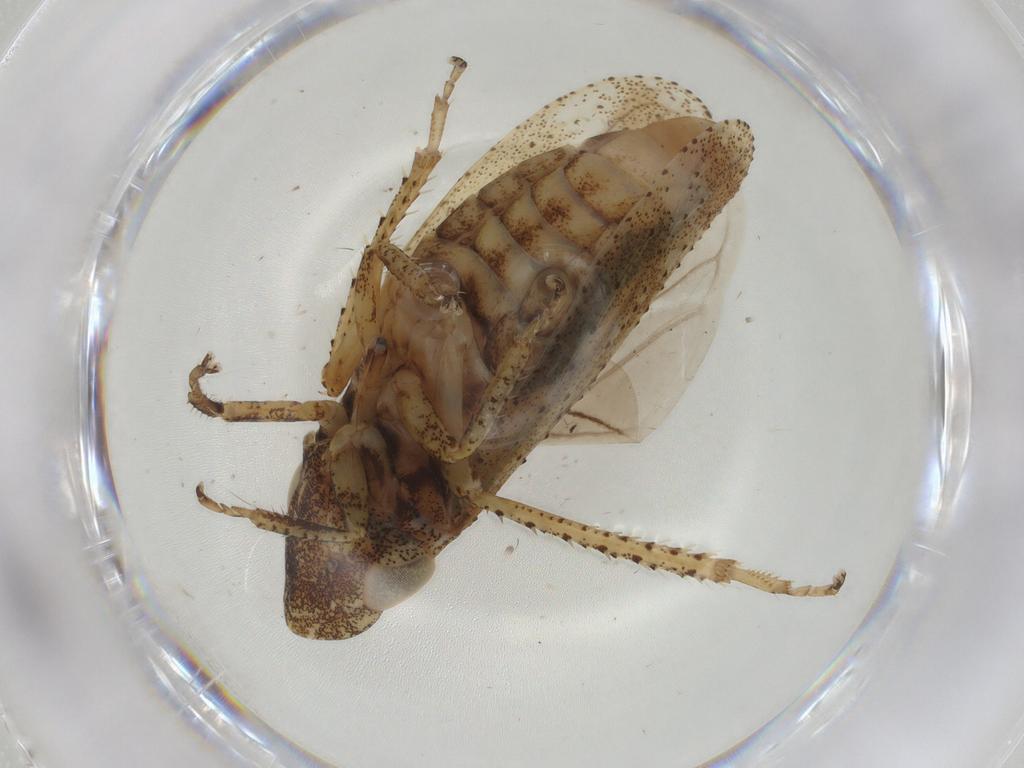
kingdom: Animalia
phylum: Arthropoda
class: Insecta
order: Hemiptera
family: Cicadellidae
